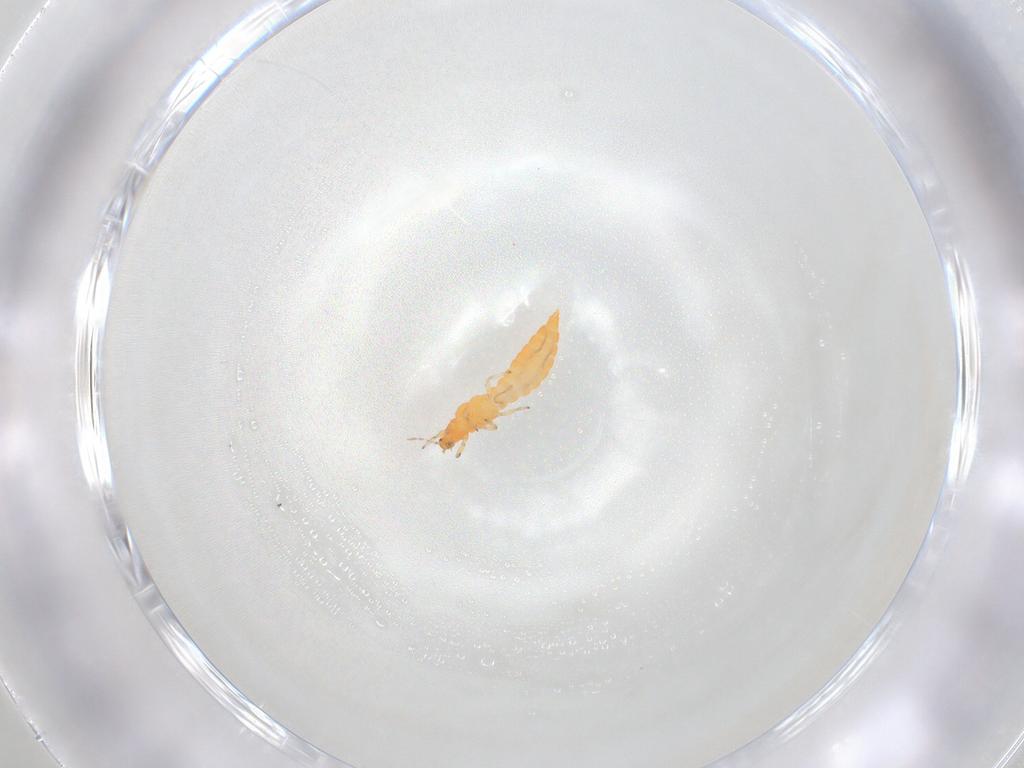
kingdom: Animalia
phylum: Arthropoda
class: Insecta
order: Thysanoptera
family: Aeolothripidae
